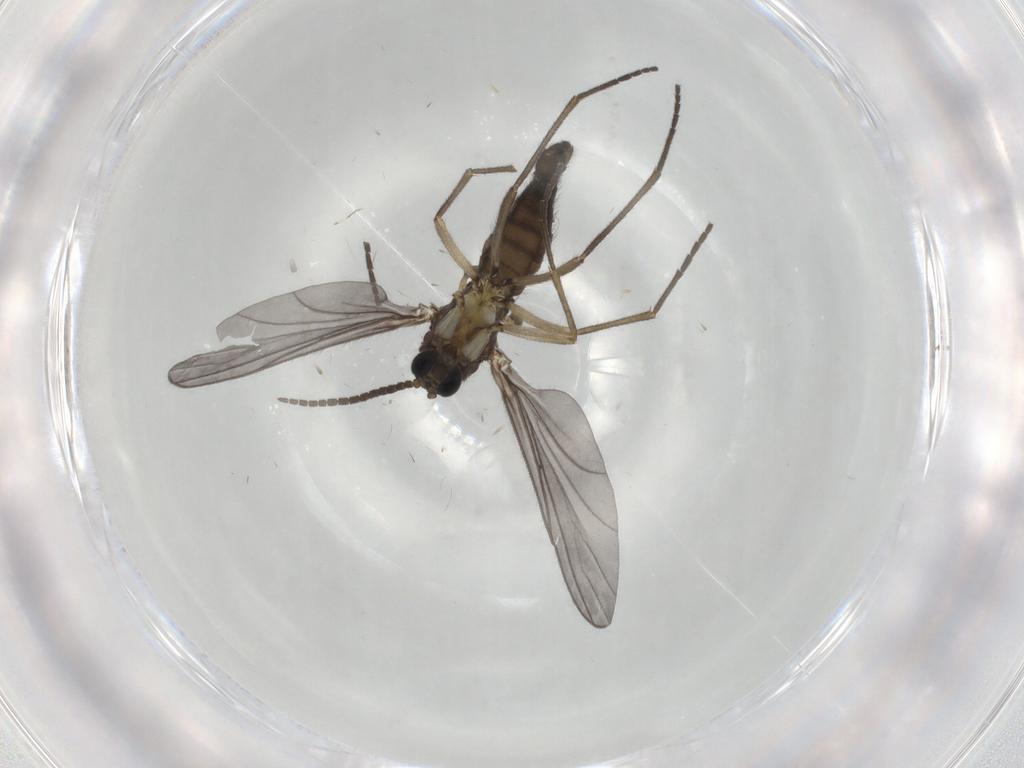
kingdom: Animalia
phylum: Arthropoda
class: Insecta
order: Diptera
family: Sciaridae
